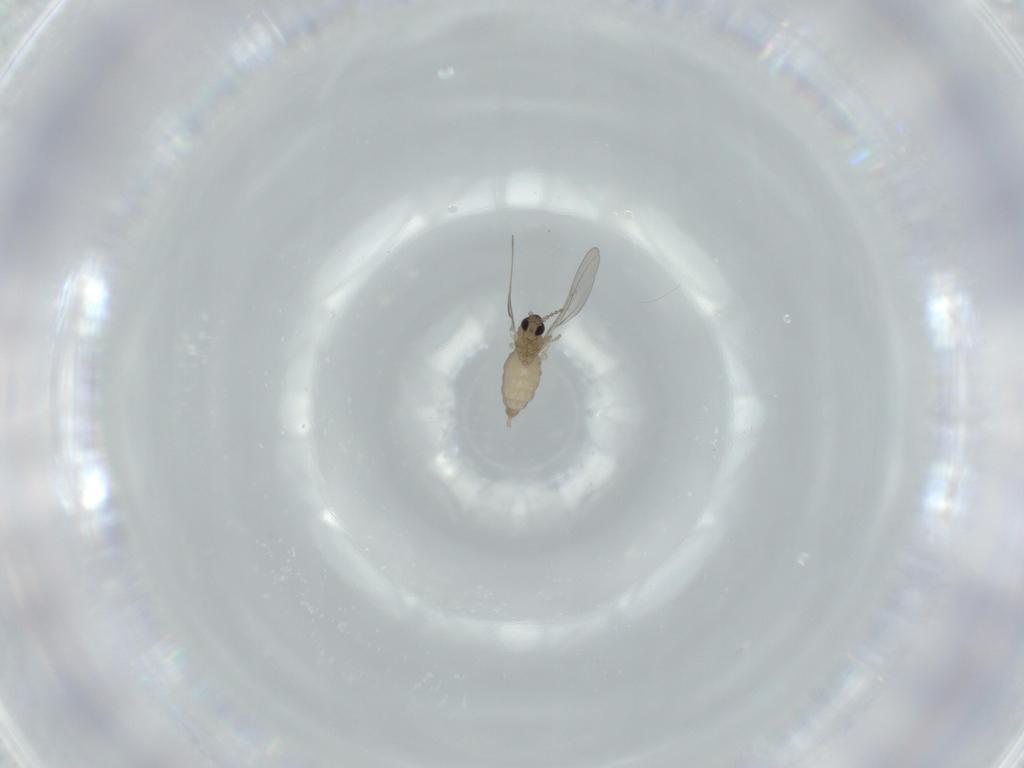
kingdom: Animalia
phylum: Arthropoda
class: Insecta
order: Diptera
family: Cecidomyiidae
